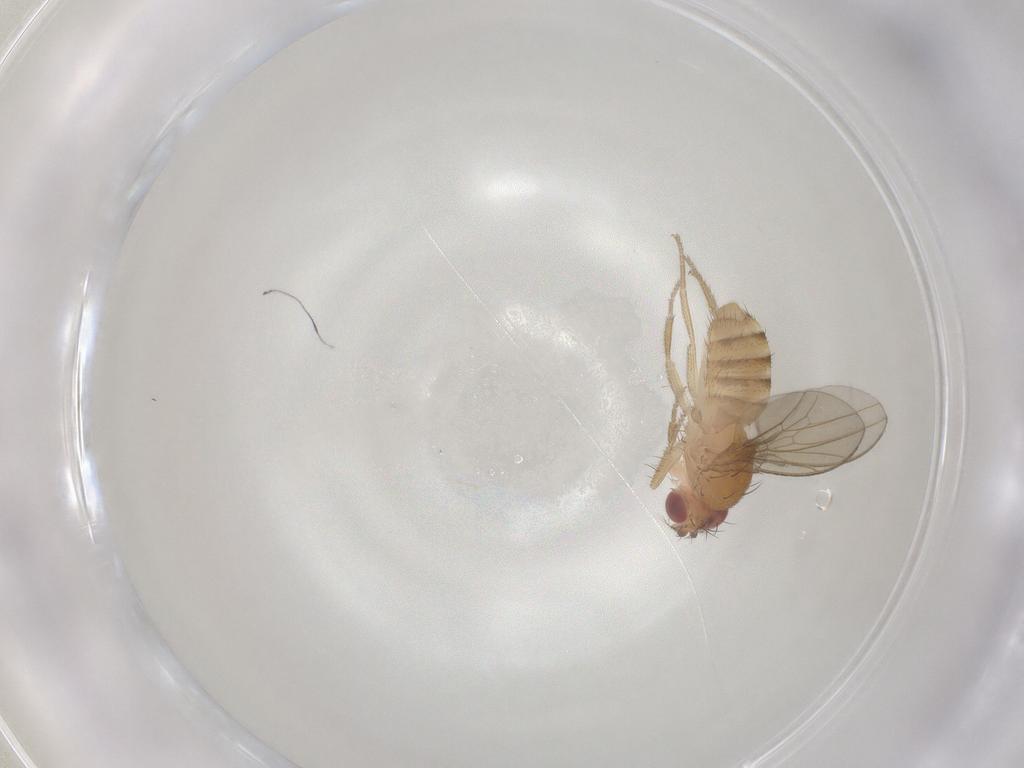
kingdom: Animalia
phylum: Arthropoda
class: Insecta
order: Diptera
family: Drosophilidae
